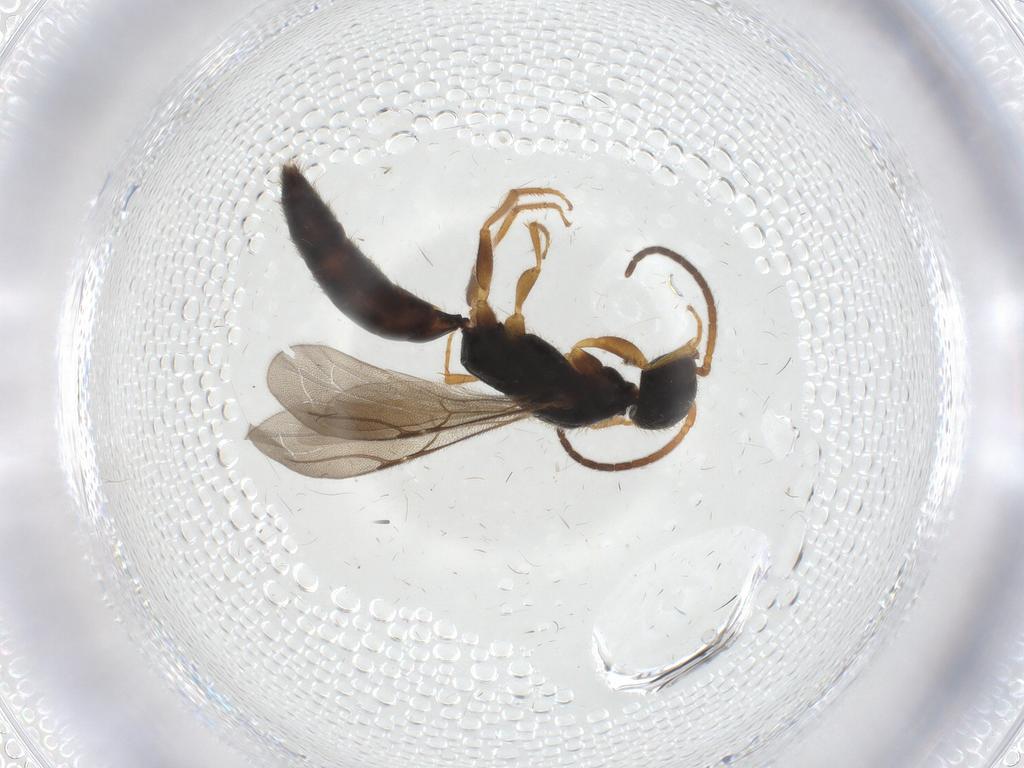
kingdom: Animalia
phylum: Arthropoda
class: Insecta
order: Hymenoptera
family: Bethylidae
